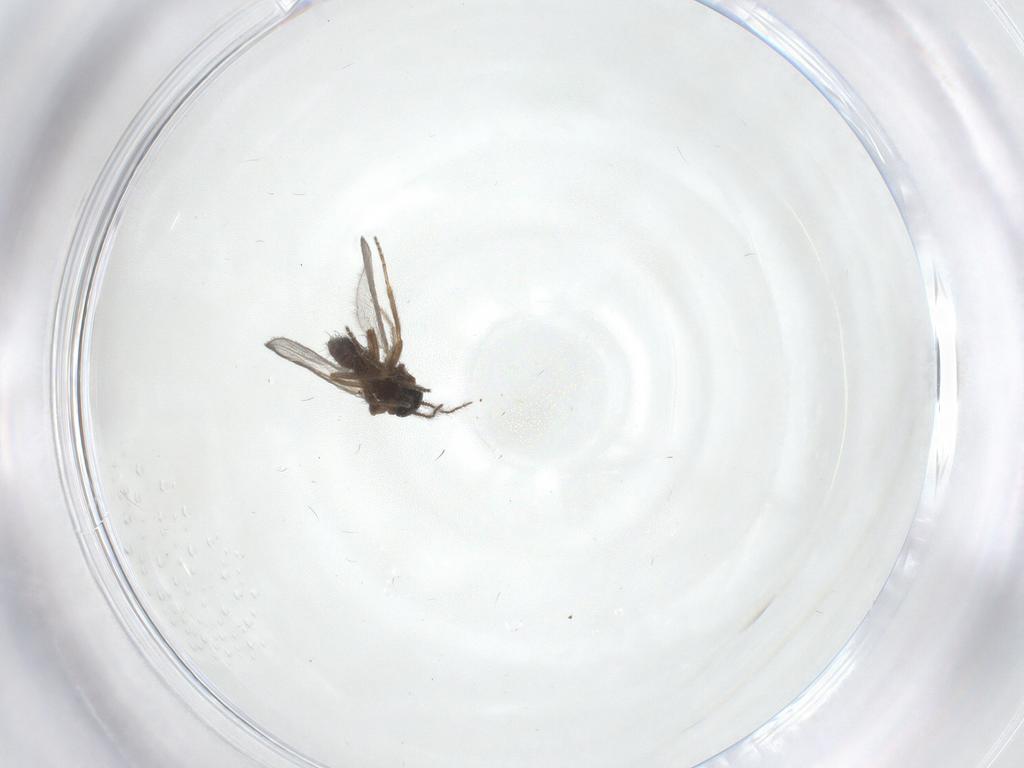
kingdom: Animalia
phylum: Arthropoda
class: Insecta
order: Diptera
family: Ceratopogonidae
